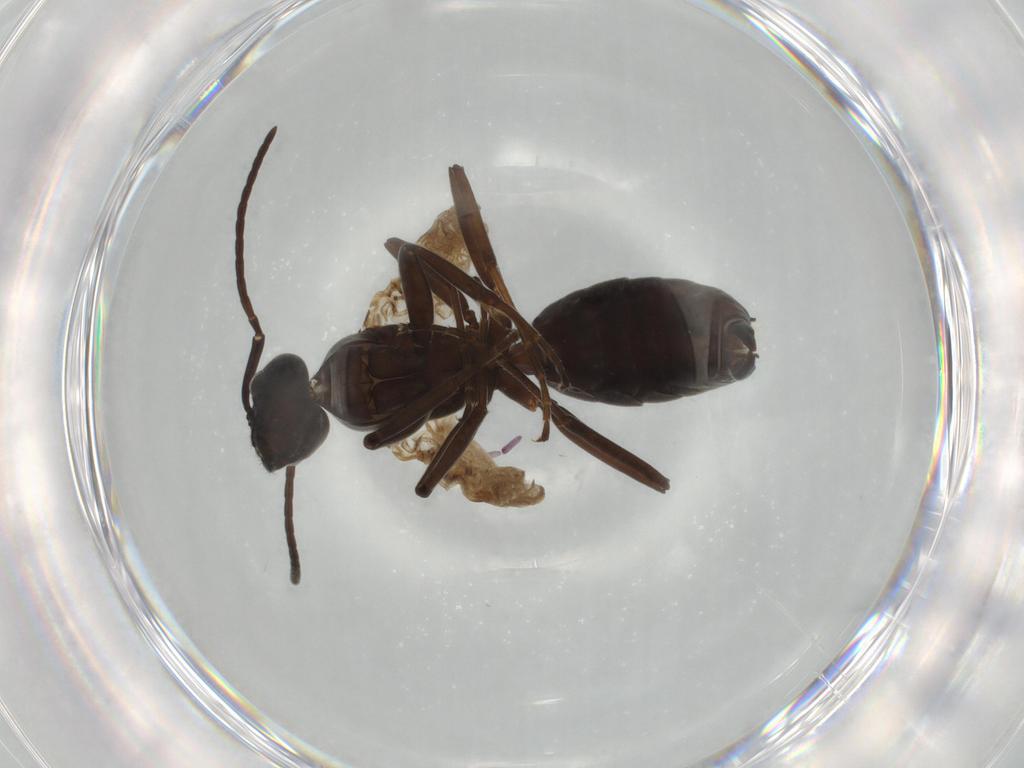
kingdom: Animalia
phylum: Arthropoda
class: Insecta
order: Hymenoptera
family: Formicidae
